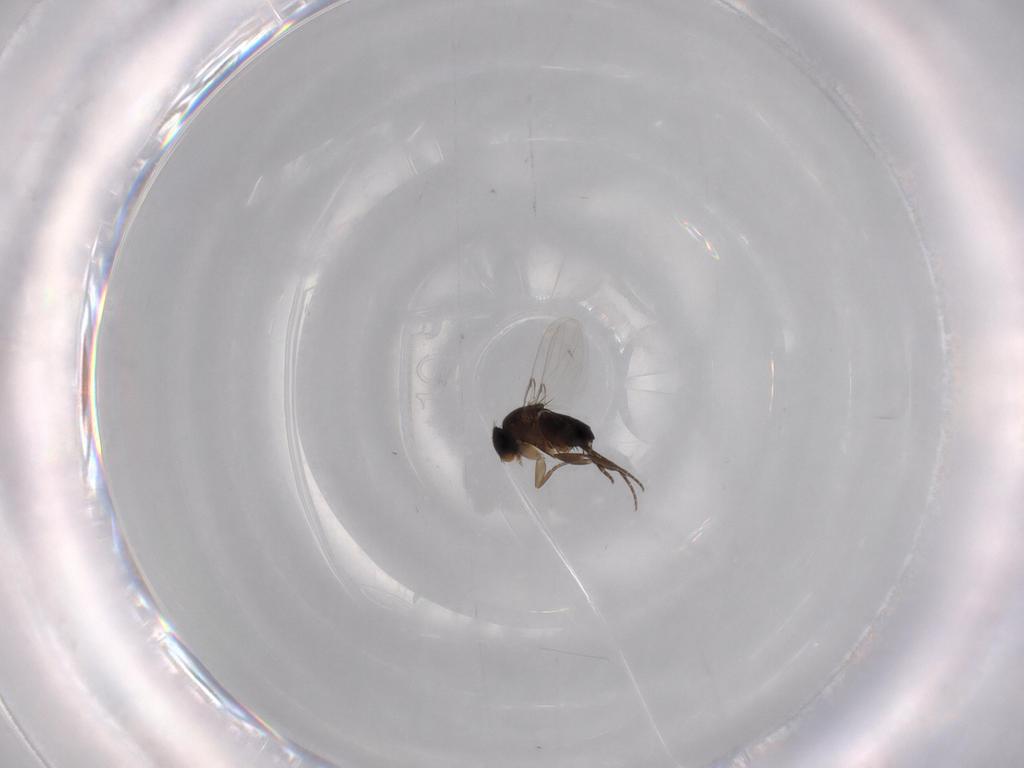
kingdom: Animalia
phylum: Arthropoda
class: Insecta
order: Diptera
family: Phoridae
